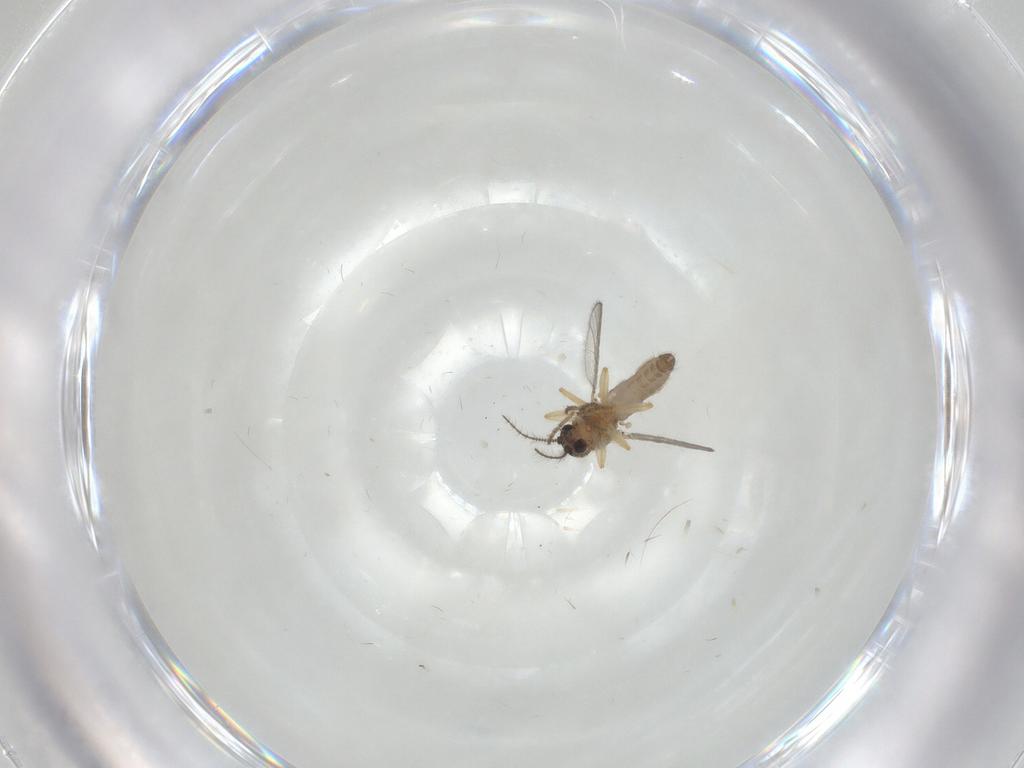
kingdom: Animalia
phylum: Arthropoda
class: Insecta
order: Diptera
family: Ceratopogonidae
